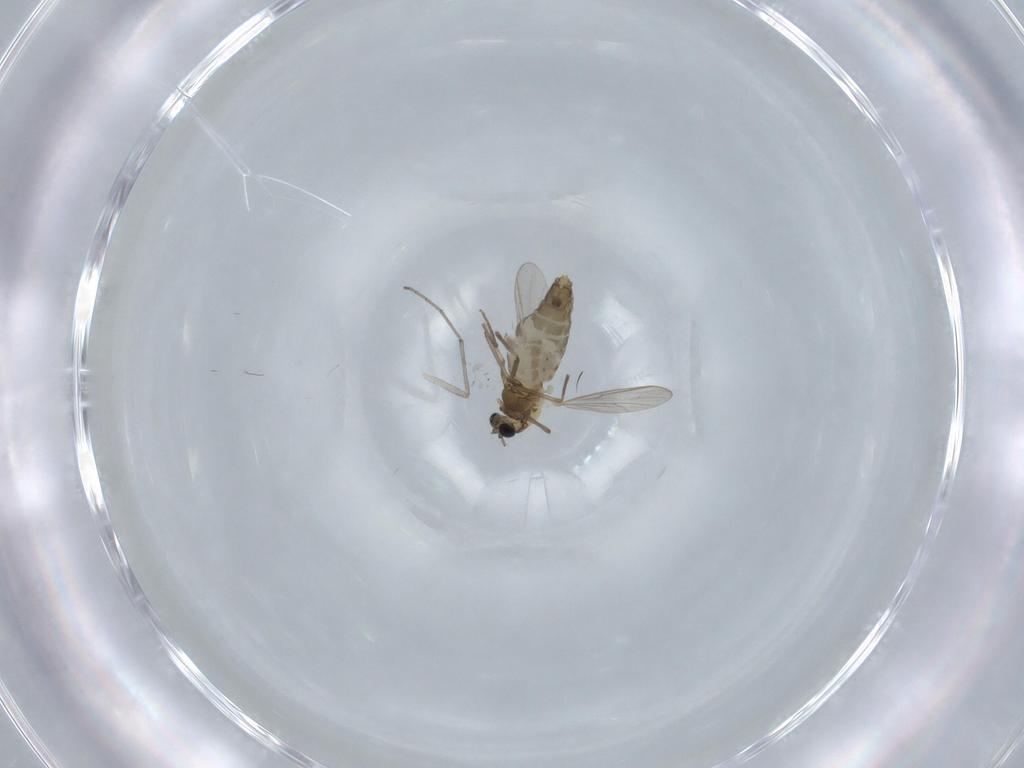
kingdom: Animalia
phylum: Arthropoda
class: Insecta
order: Diptera
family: Chironomidae
